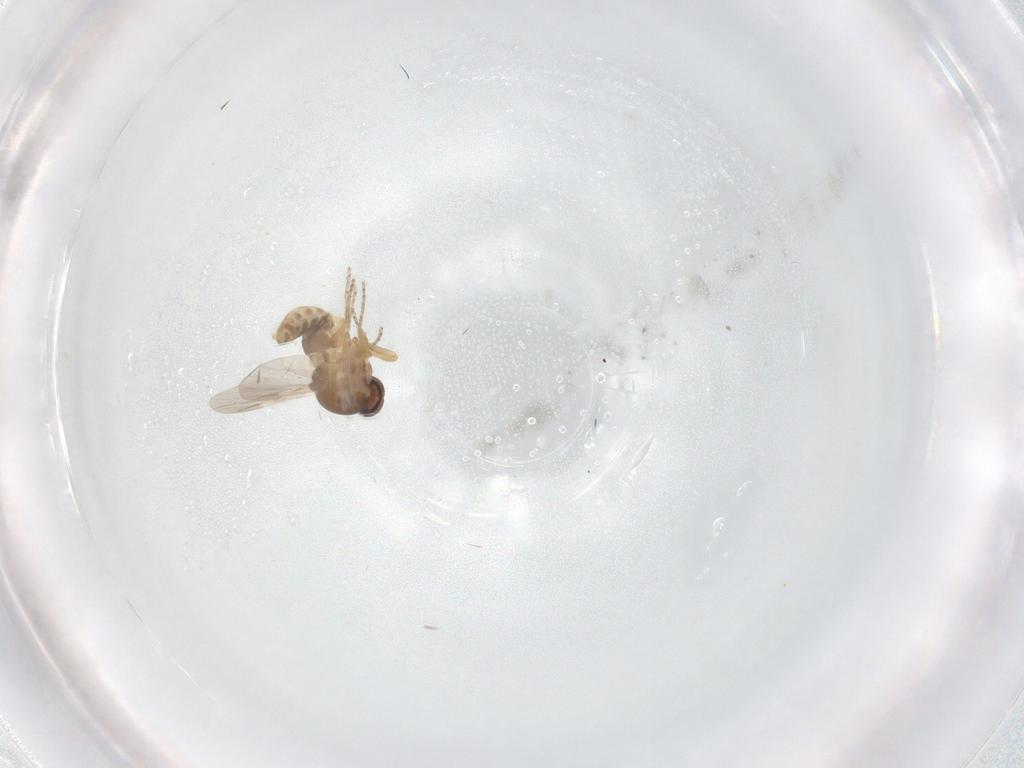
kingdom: Animalia
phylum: Arthropoda
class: Insecta
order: Diptera
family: Ceratopogonidae
